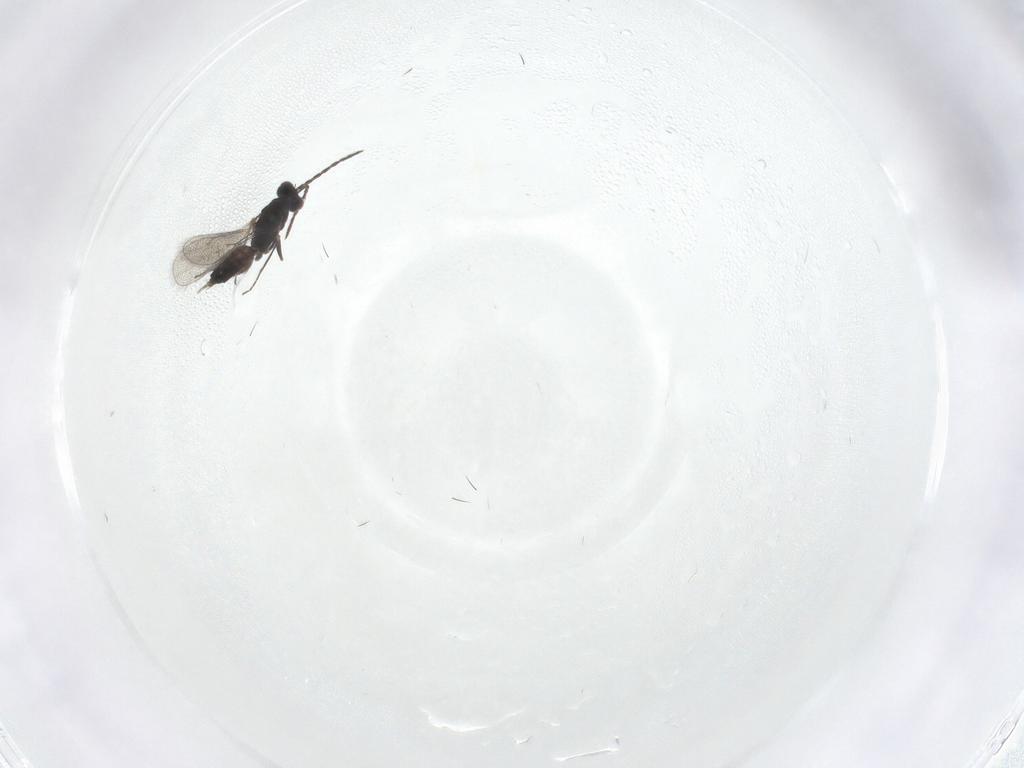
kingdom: Animalia
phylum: Arthropoda
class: Insecta
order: Hymenoptera
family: Eulophidae
